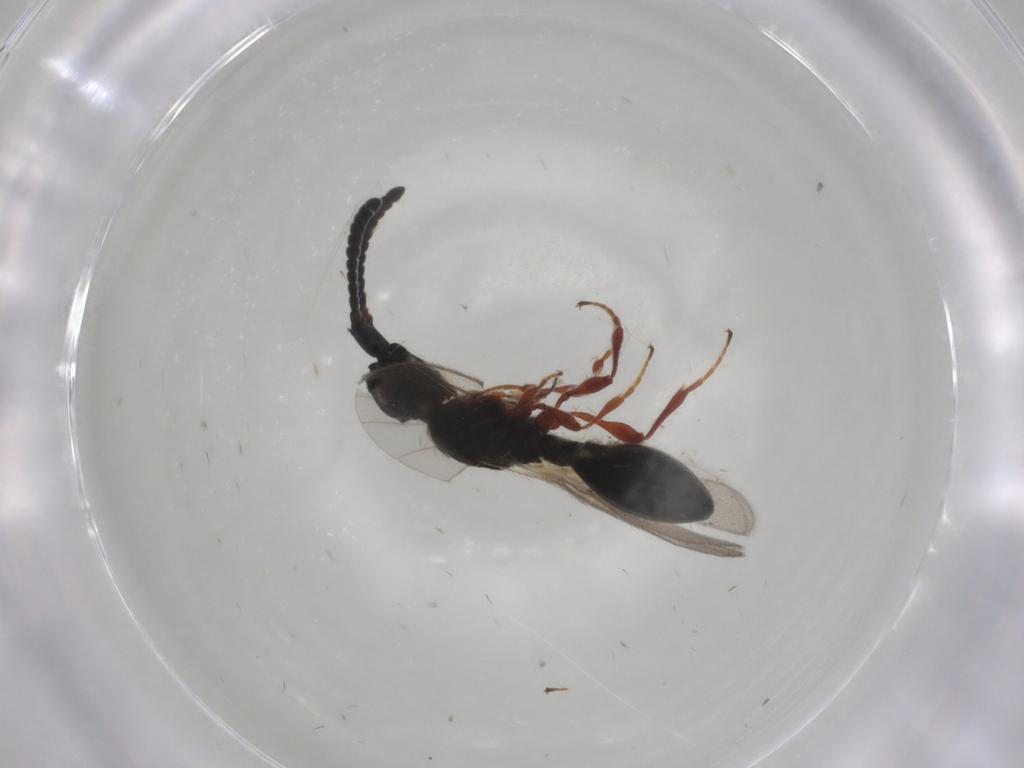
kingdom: Animalia
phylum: Arthropoda
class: Insecta
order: Hymenoptera
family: Diapriidae
